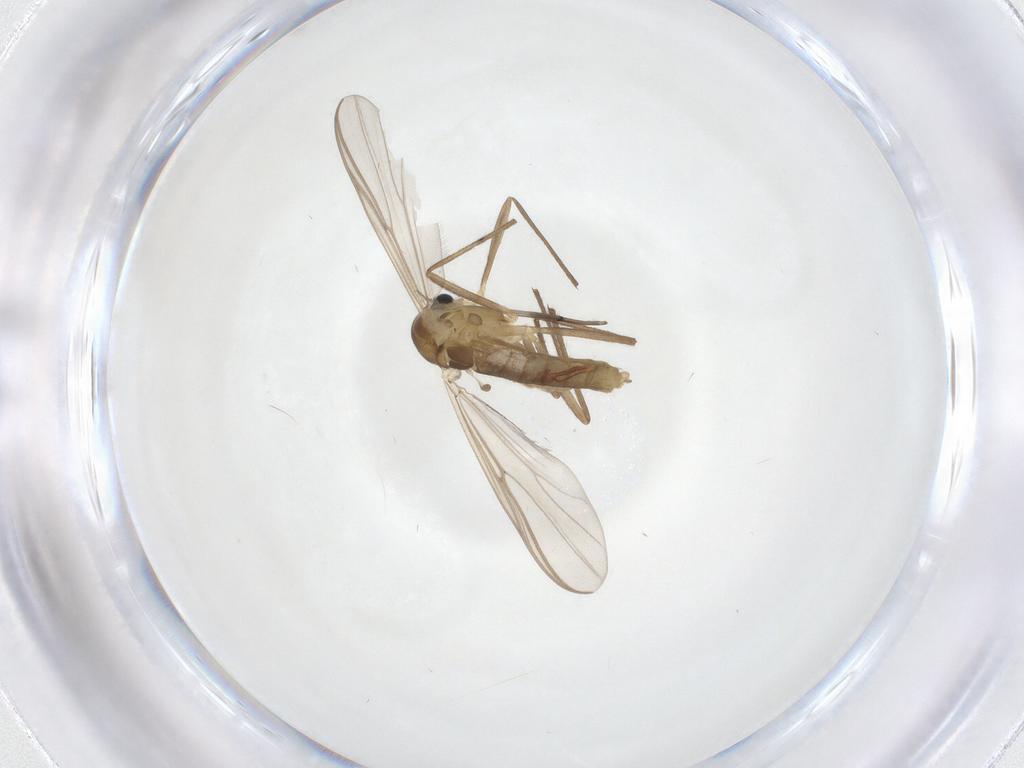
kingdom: Animalia
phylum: Arthropoda
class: Insecta
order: Diptera
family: Chironomidae
